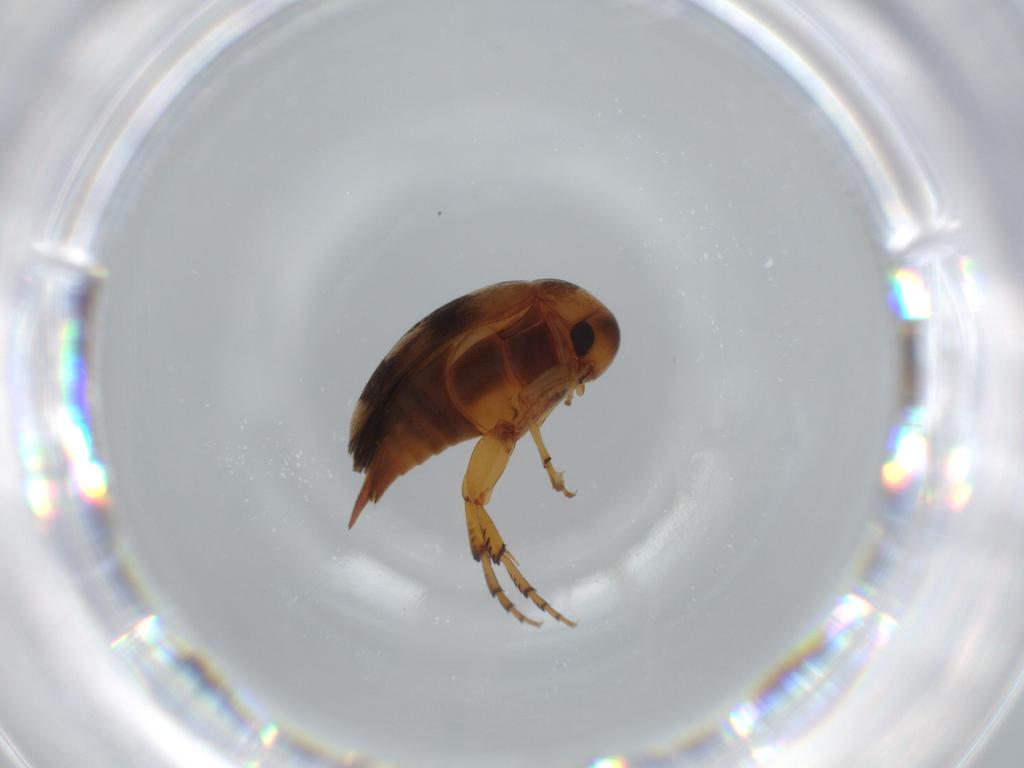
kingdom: Animalia
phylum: Arthropoda
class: Insecta
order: Coleoptera
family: Mordellidae
